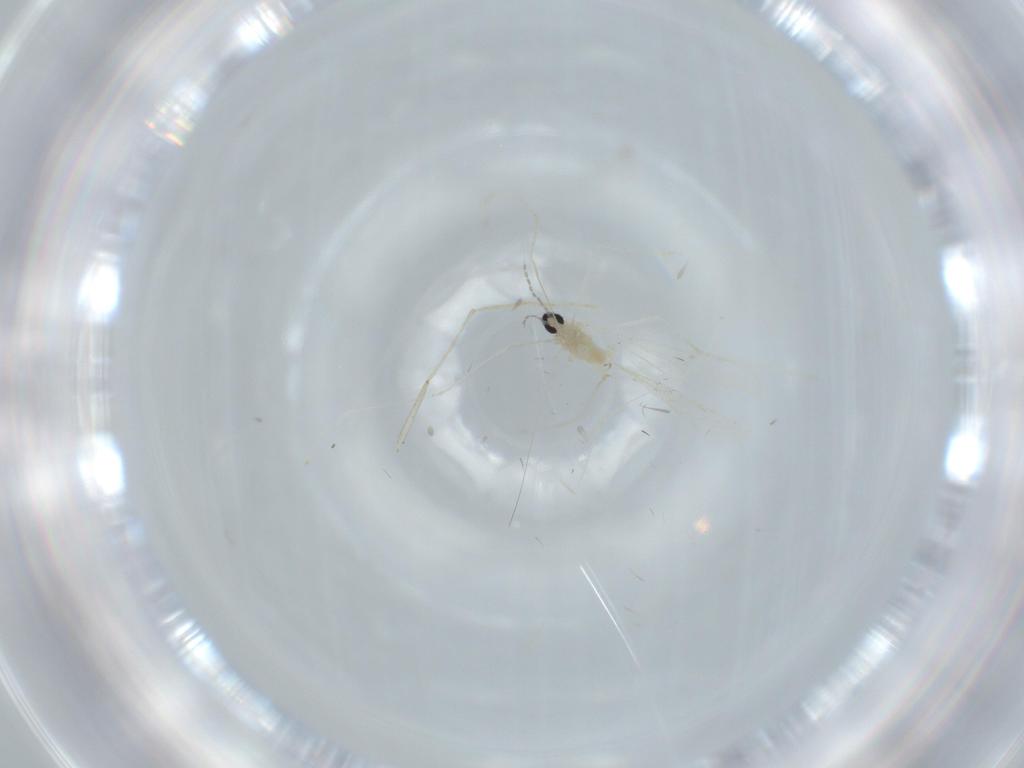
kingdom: Animalia
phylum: Arthropoda
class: Insecta
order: Diptera
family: Cecidomyiidae
